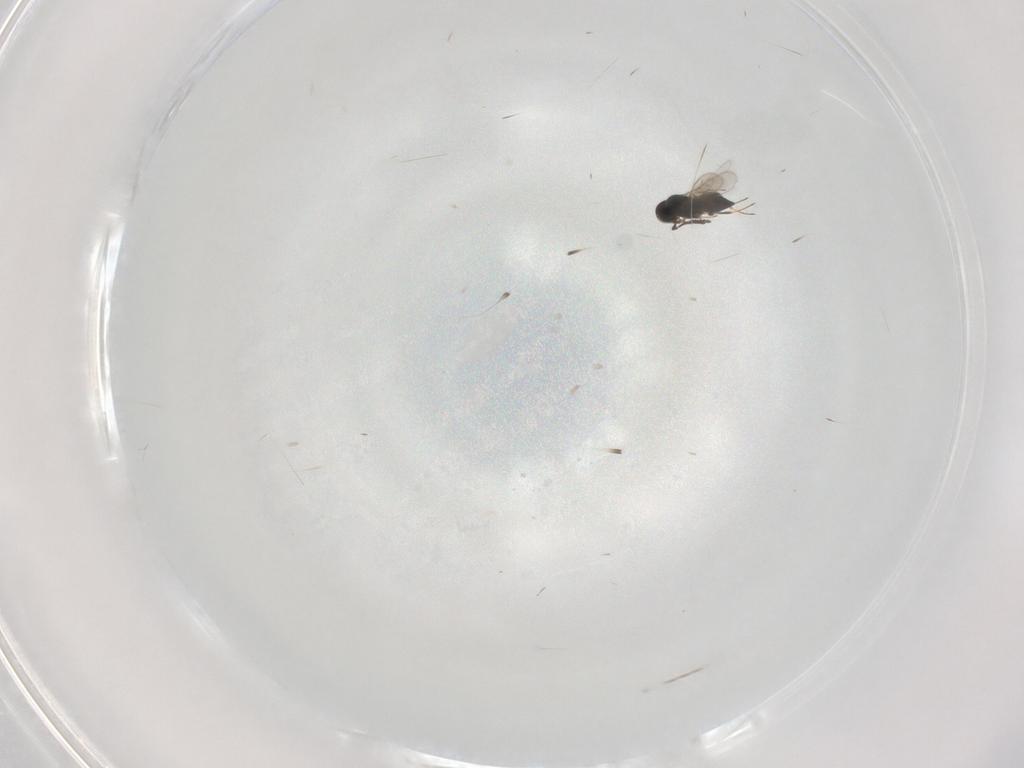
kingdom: Animalia
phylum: Arthropoda
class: Insecta
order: Hymenoptera
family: Scelionidae
